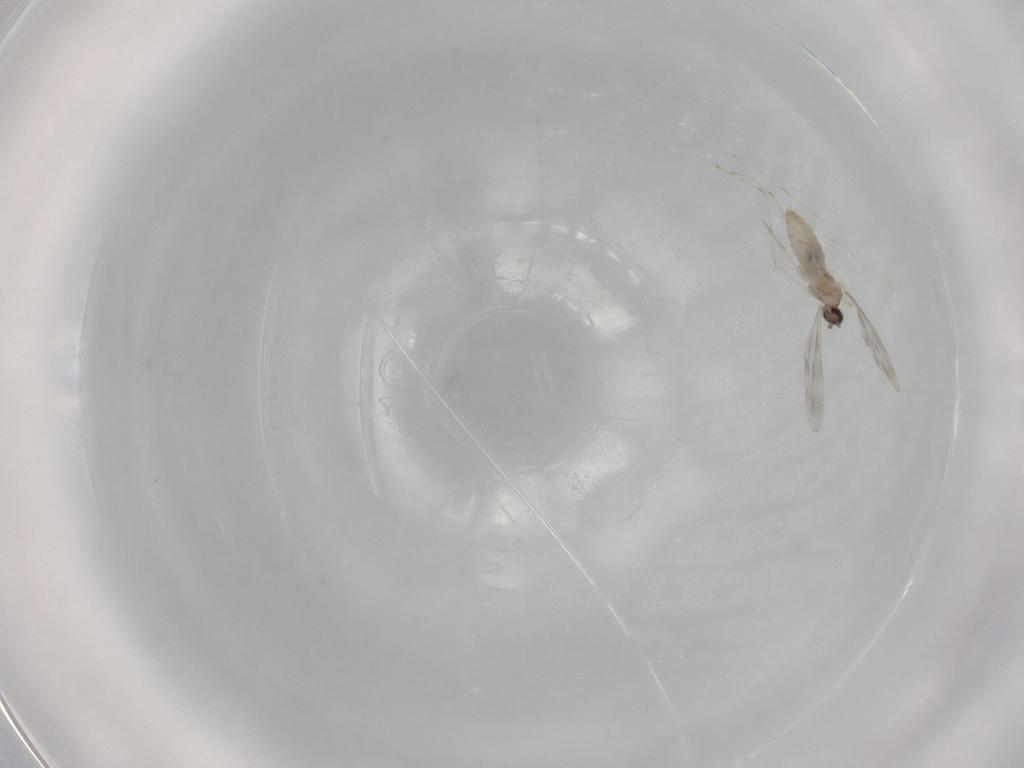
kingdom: Animalia
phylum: Arthropoda
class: Insecta
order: Diptera
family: Cecidomyiidae
